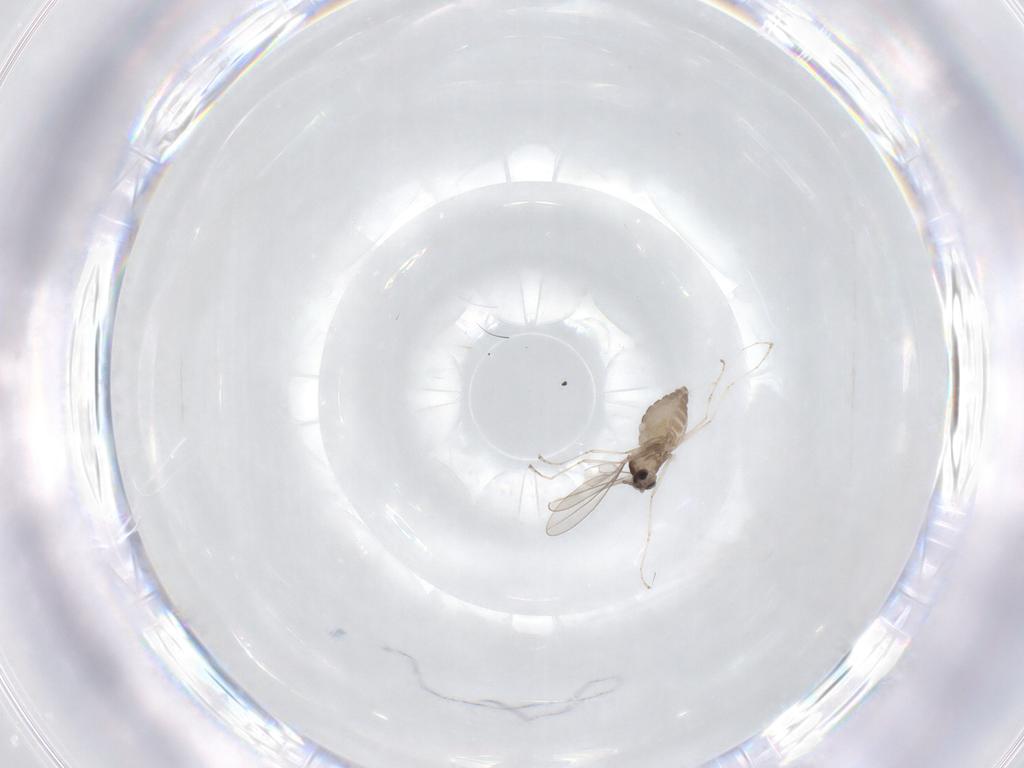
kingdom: Animalia
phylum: Arthropoda
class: Insecta
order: Diptera
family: Cecidomyiidae
